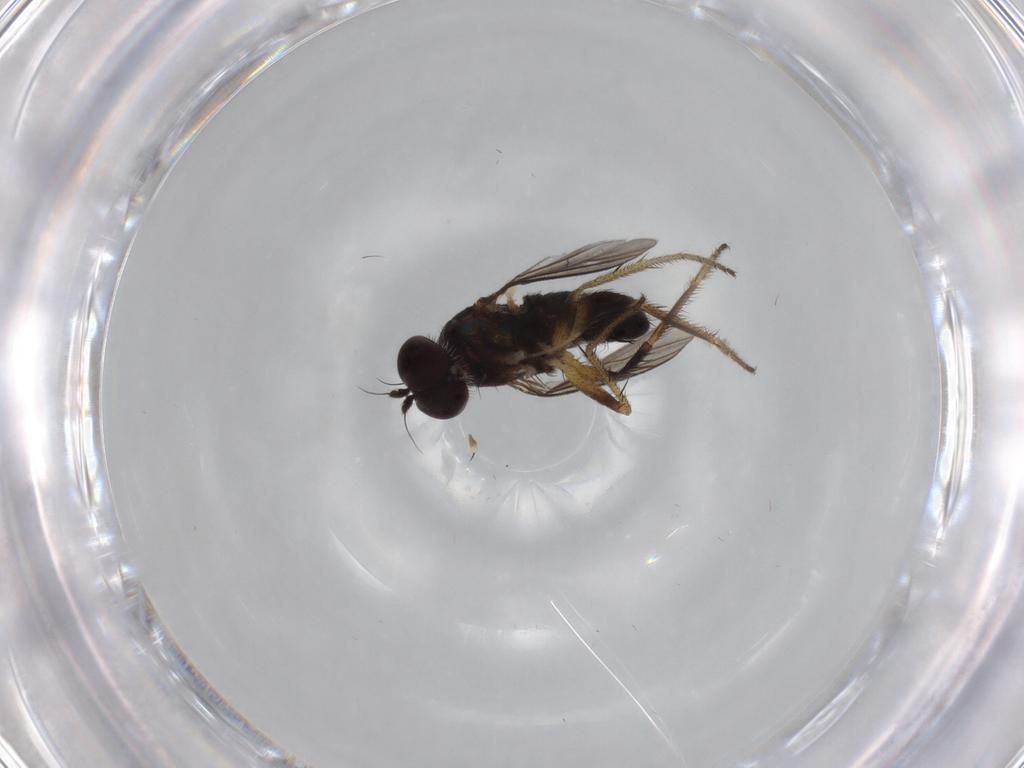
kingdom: Animalia
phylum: Arthropoda
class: Insecta
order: Diptera
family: Dolichopodidae
